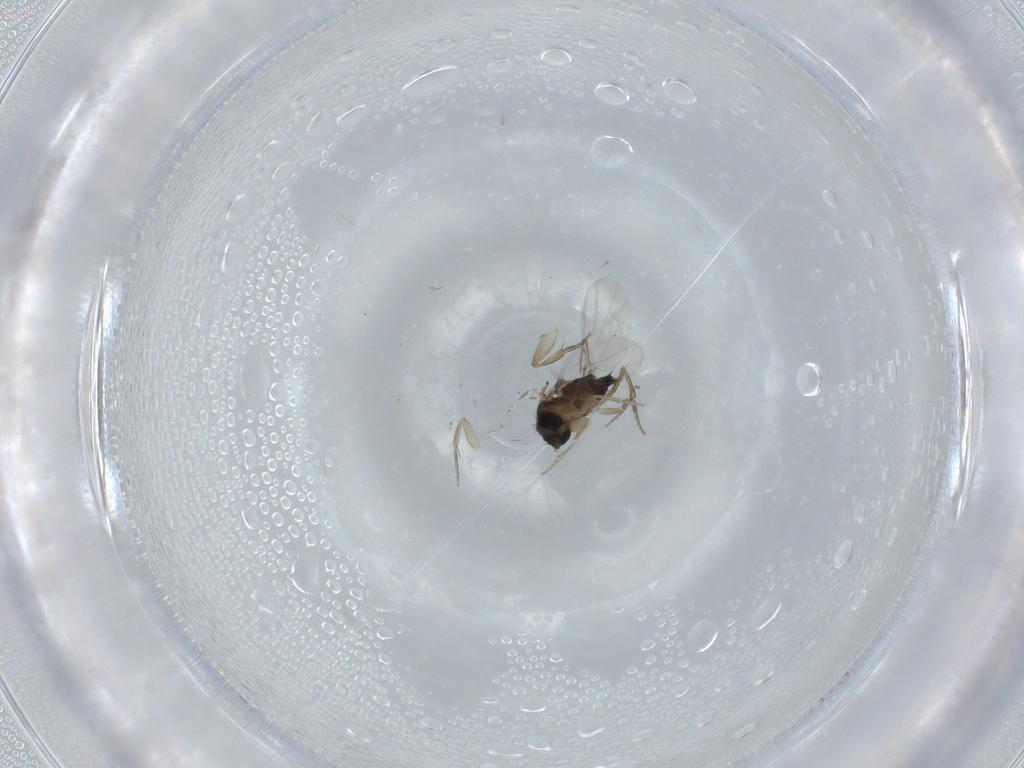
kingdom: Animalia
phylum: Arthropoda
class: Insecta
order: Diptera
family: Phoridae
